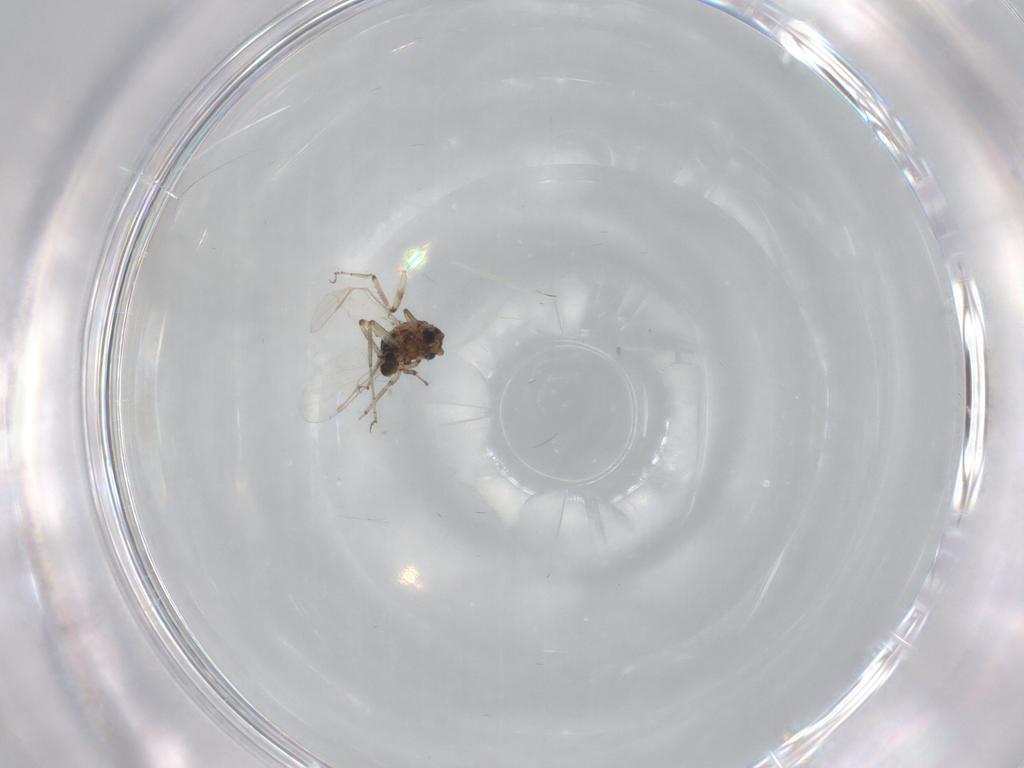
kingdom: Animalia
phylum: Arthropoda
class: Insecta
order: Diptera
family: Ceratopogonidae
